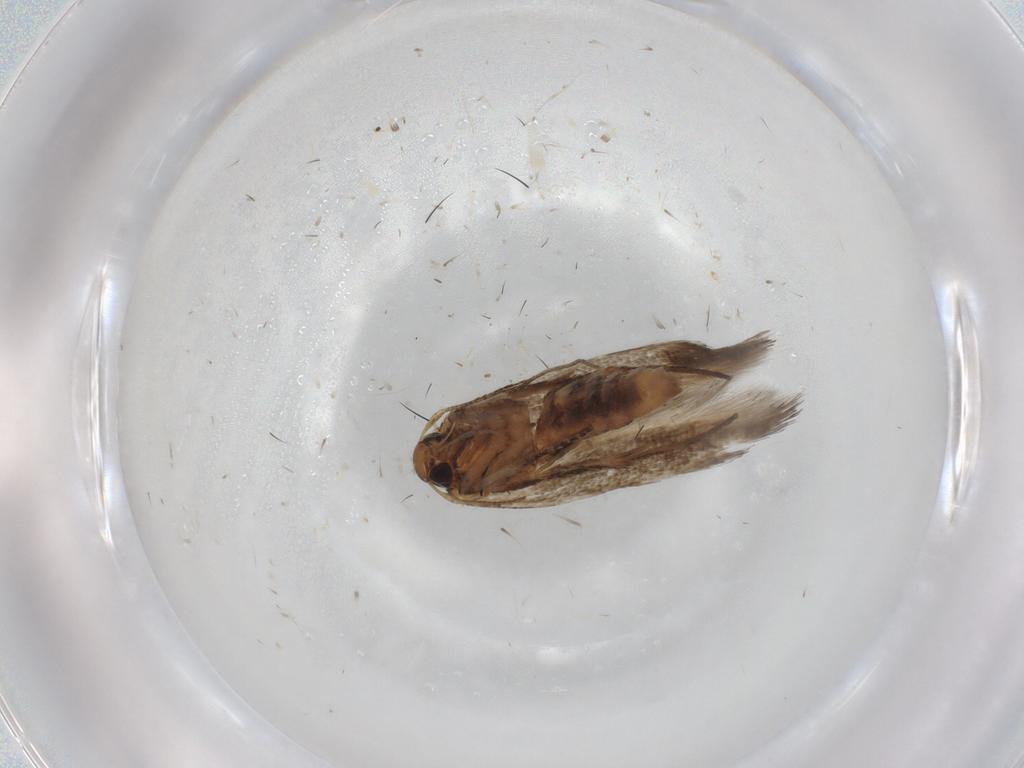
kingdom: Animalia
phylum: Arthropoda
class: Insecta
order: Lepidoptera
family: Cosmopterigidae
